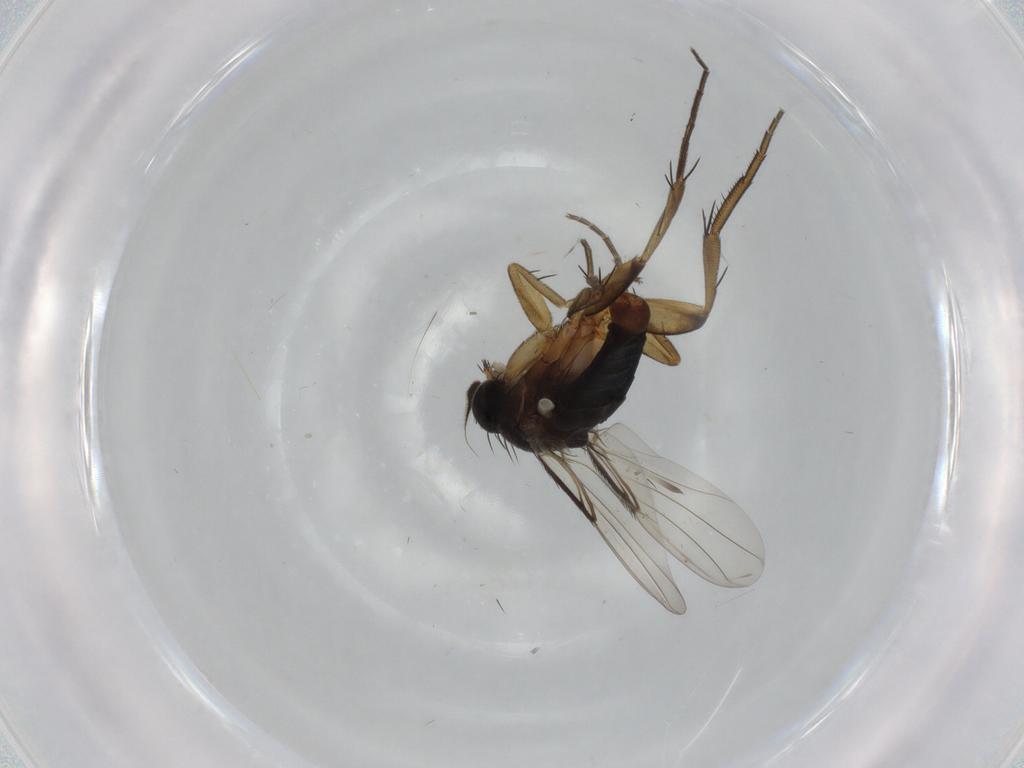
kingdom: Animalia
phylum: Arthropoda
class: Insecta
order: Diptera
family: Phoridae
